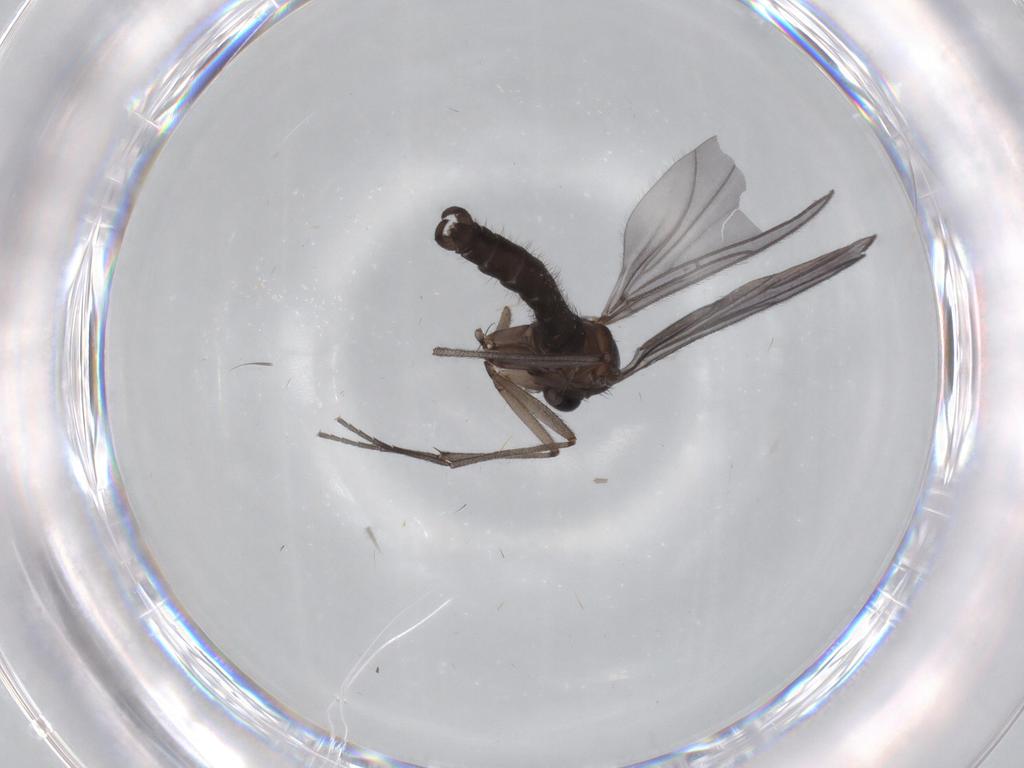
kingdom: Animalia
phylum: Arthropoda
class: Insecta
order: Diptera
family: Sciaridae
